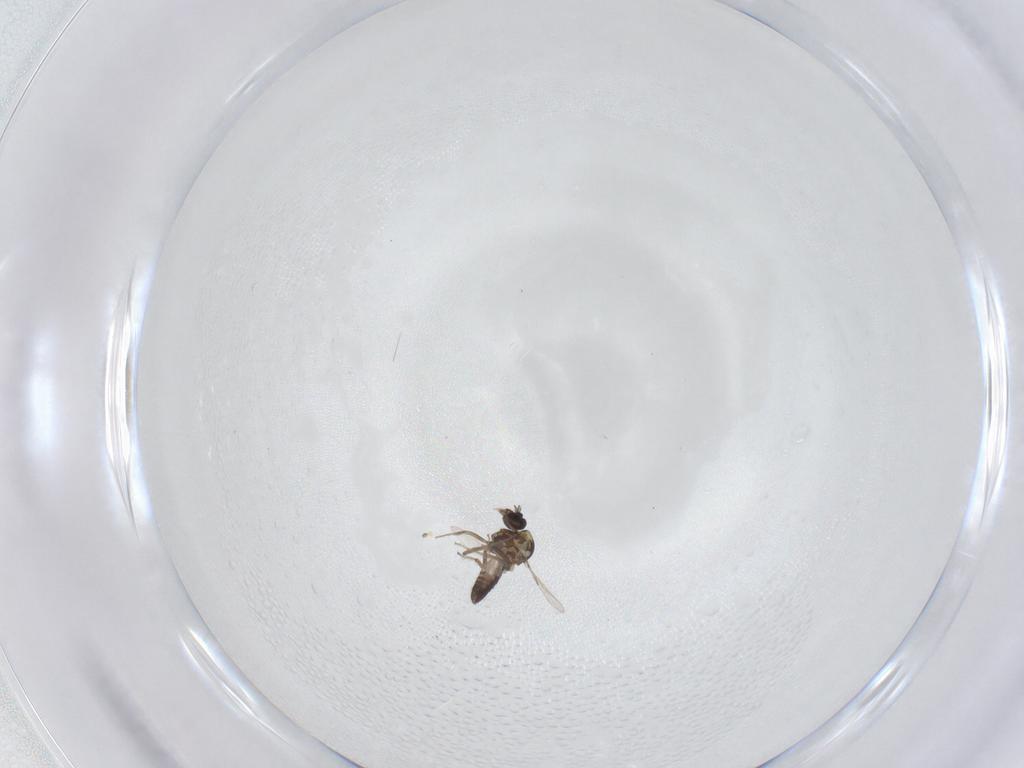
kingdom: Animalia
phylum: Arthropoda
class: Insecta
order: Diptera
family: Ceratopogonidae
